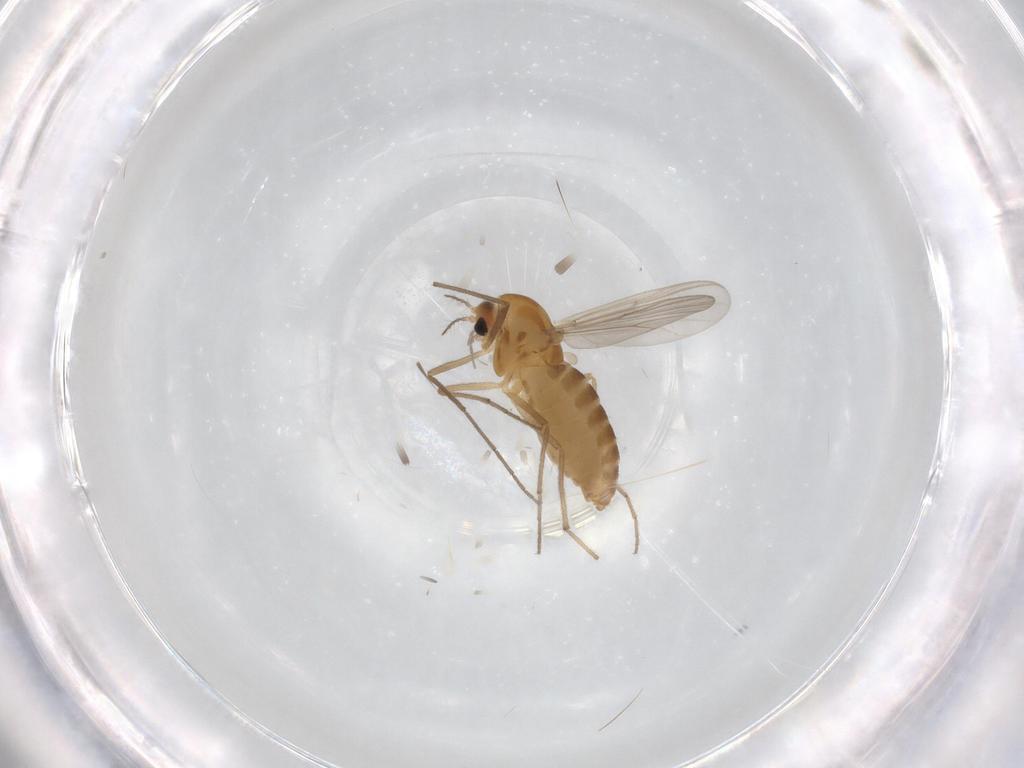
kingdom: Animalia
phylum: Arthropoda
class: Insecta
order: Diptera
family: Chironomidae
